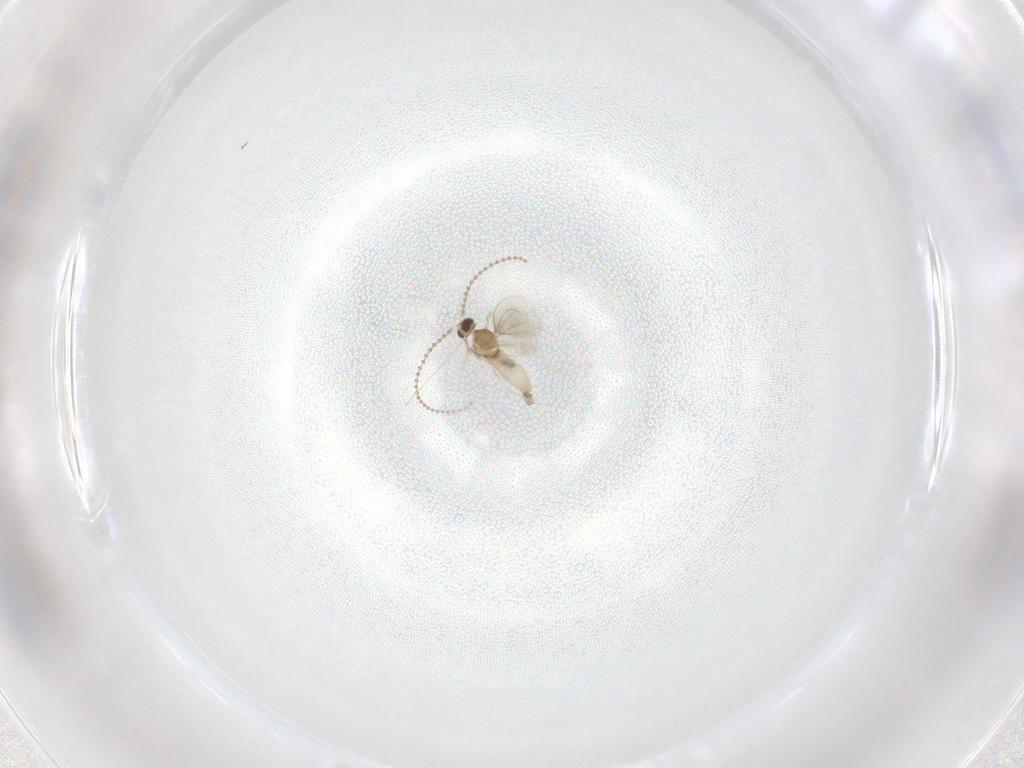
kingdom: Animalia
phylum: Arthropoda
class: Insecta
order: Diptera
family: Cecidomyiidae
